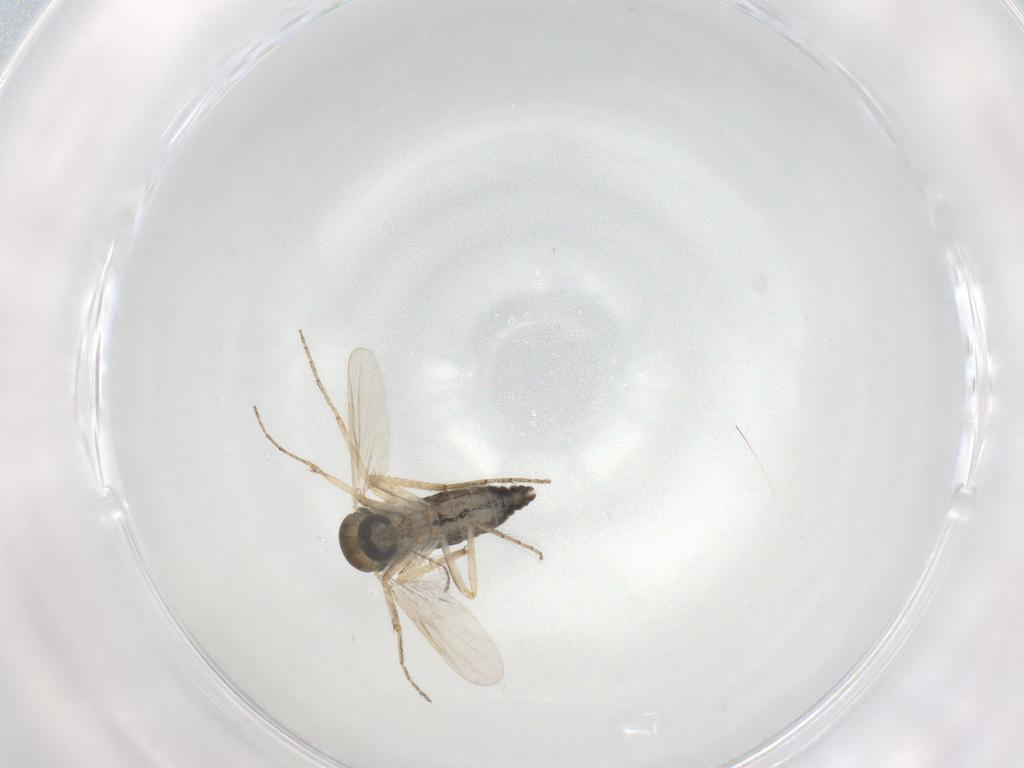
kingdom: Animalia
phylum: Arthropoda
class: Insecta
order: Diptera
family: Ceratopogonidae
